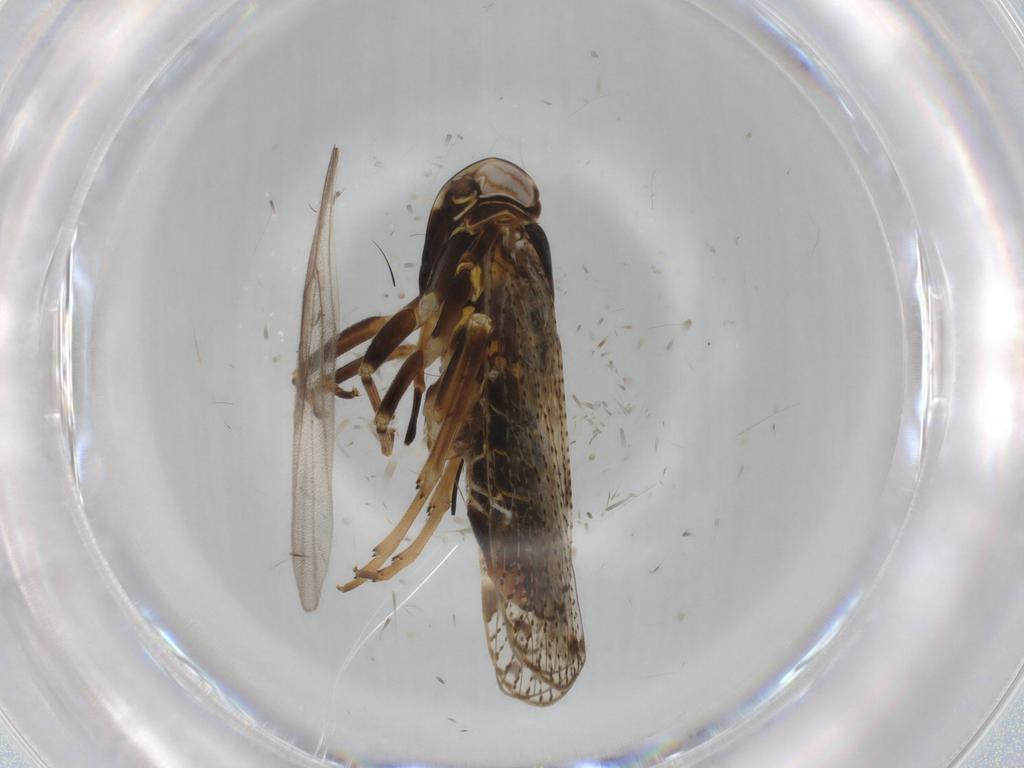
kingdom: Animalia
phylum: Arthropoda
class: Insecta
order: Hemiptera
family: Cixiidae
